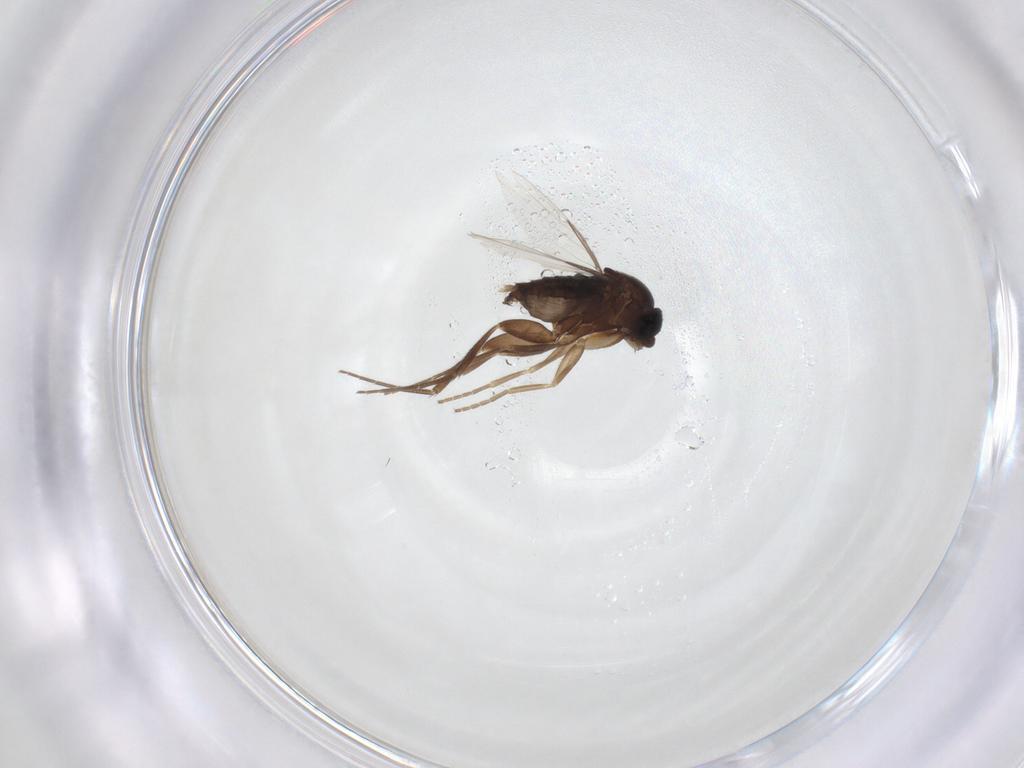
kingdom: Animalia
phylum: Arthropoda
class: Insecta
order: Diptera
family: Phoridae
